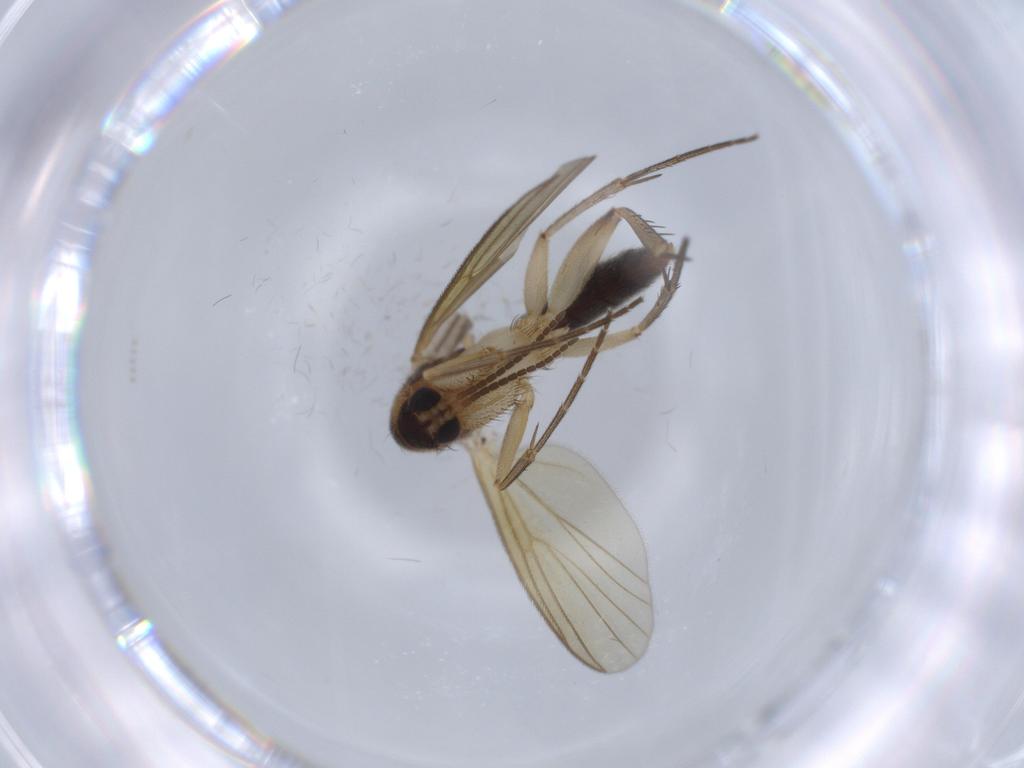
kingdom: Animalia
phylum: Arthropoda
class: Insecta
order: Diptera
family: Mycetophilidae
